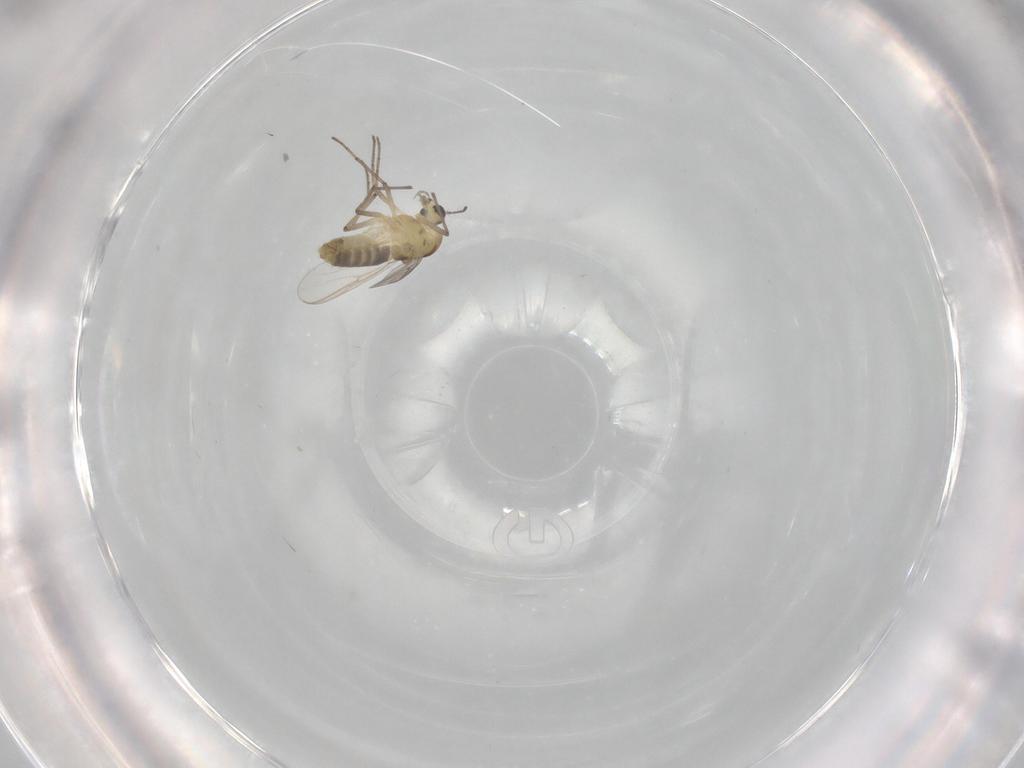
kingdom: Animalia
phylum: Arthropoda
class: Insecta
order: Diptera
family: Chironomidae
